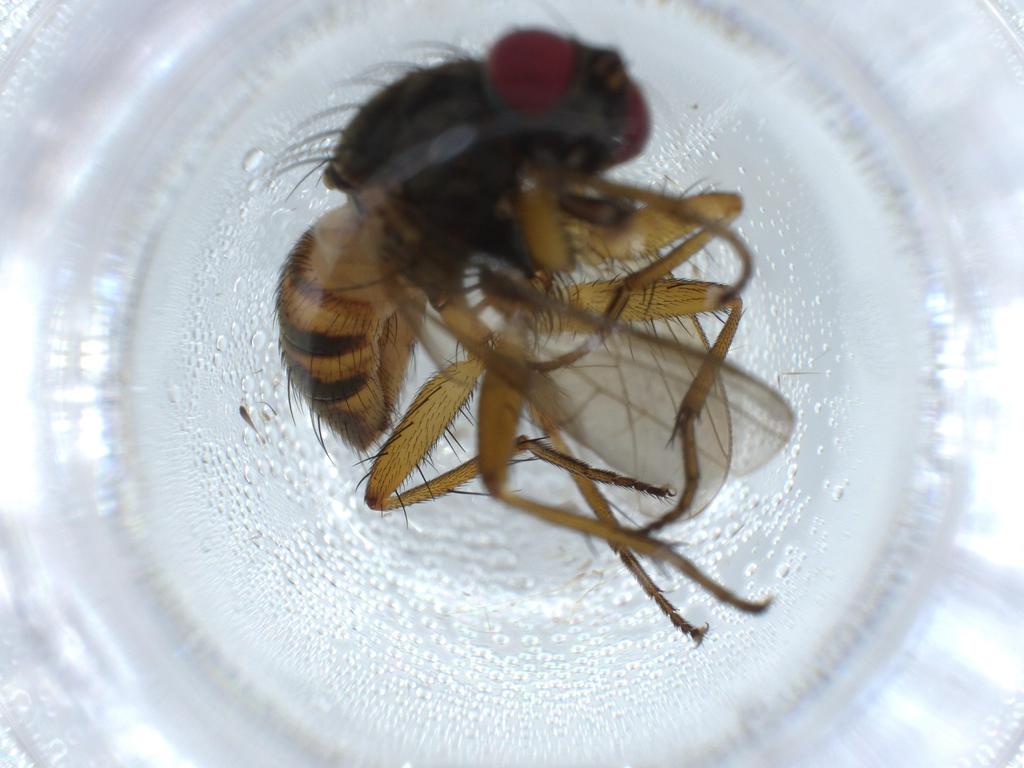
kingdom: Animalia
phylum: Arthropoda
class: Insecta
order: Diptera
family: Muscidae
